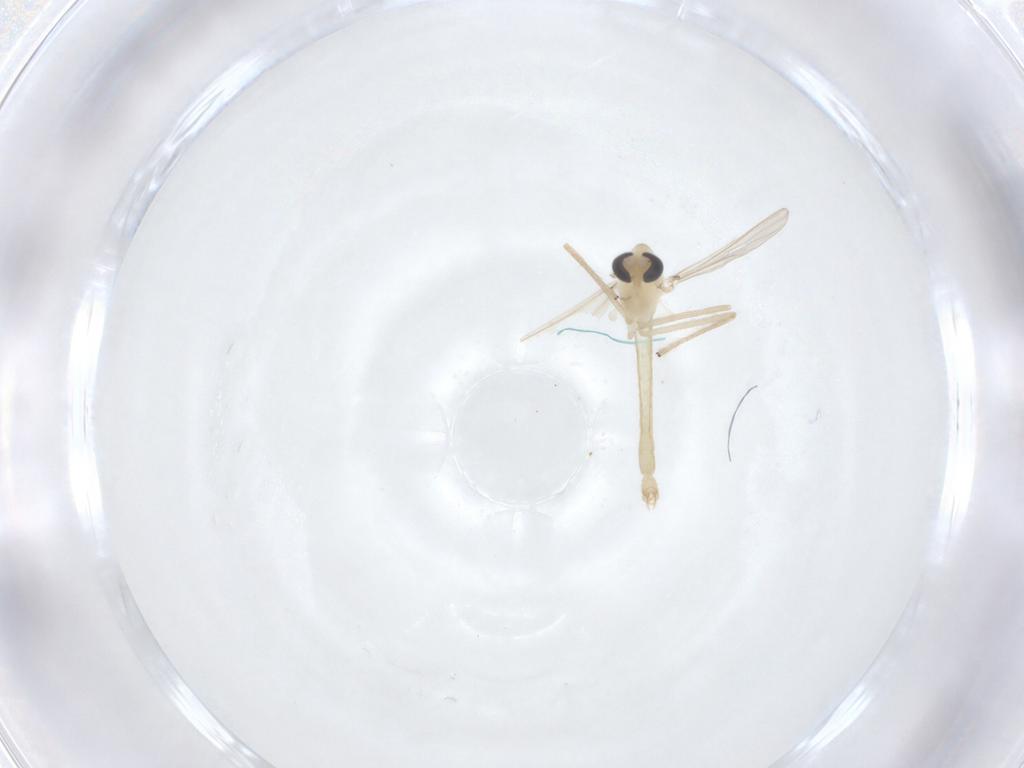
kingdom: Animalia
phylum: Arthropoda
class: Insecta
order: Diptera
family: Chironomidae
